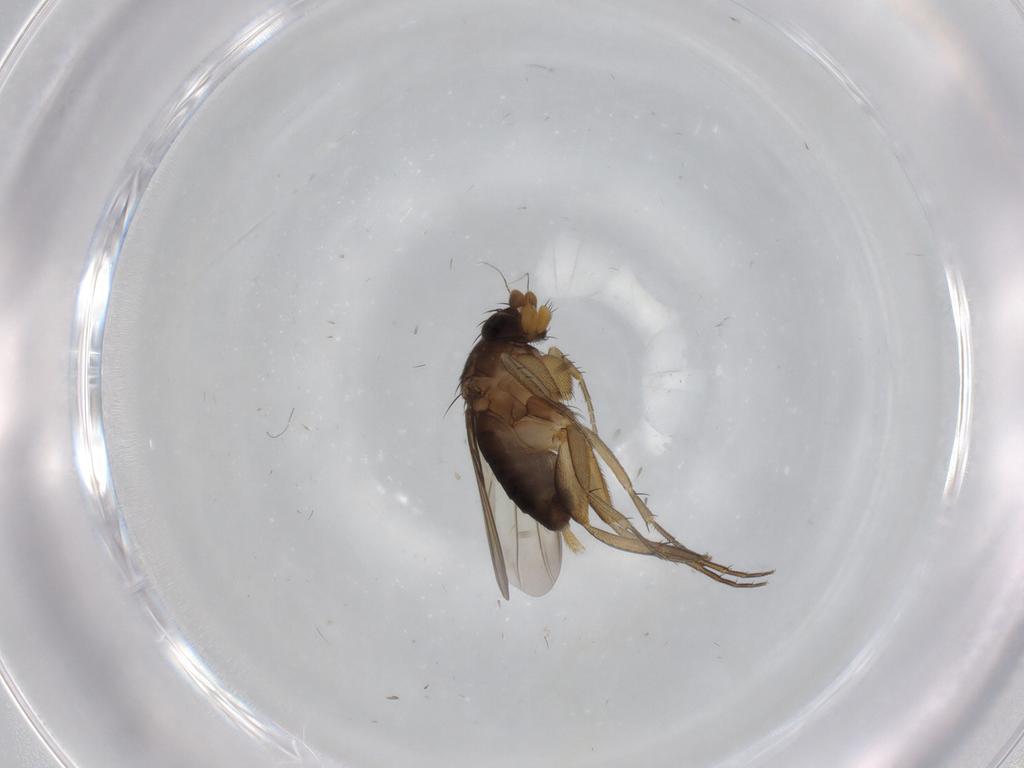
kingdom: Animalia
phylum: Arthropoda
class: Insecta
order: Diptera
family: Phoridae
